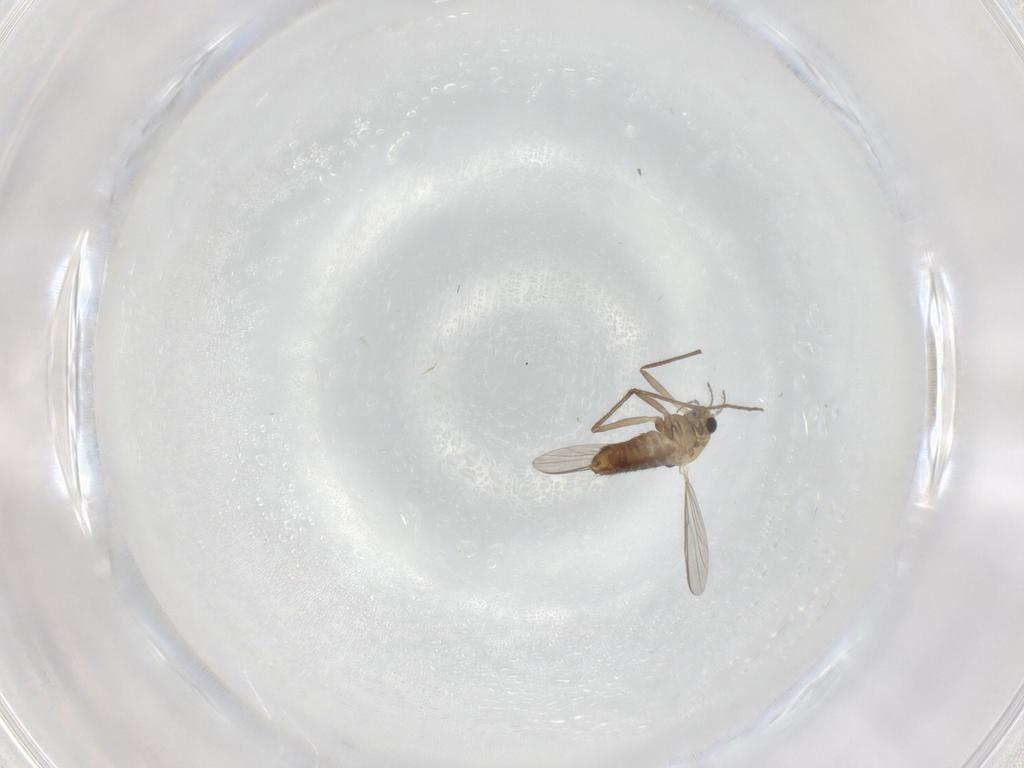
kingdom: Animalia
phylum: Arthropoda
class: Insecta
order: Diptera
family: Chironomidae
